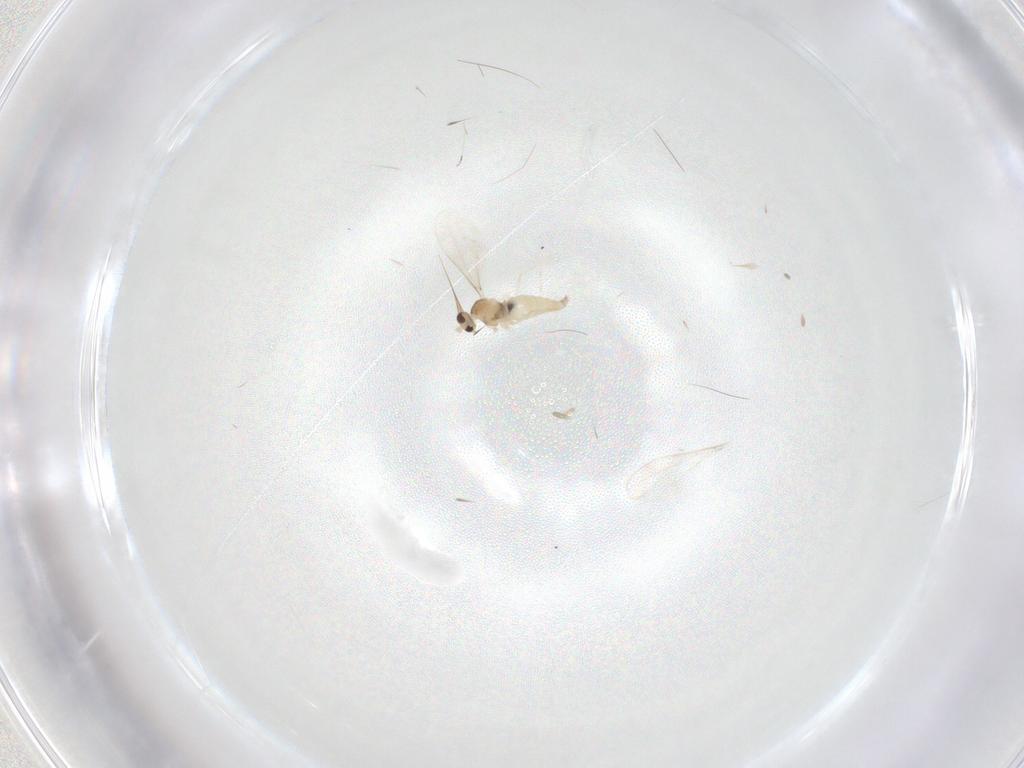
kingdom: Animalia
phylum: Arthropoda
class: Insecta
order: Diptera
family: Cecidomyiidae
